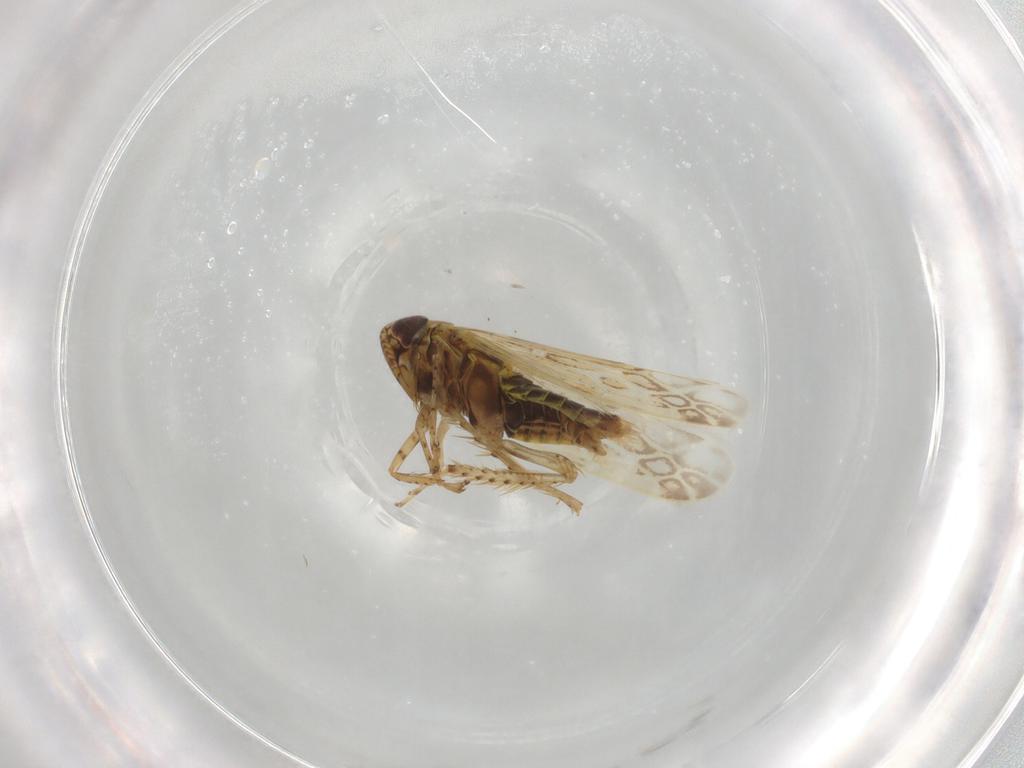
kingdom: Animalia
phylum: Arthropoda
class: Insecta
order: Hemiptera
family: Cicadellidae
